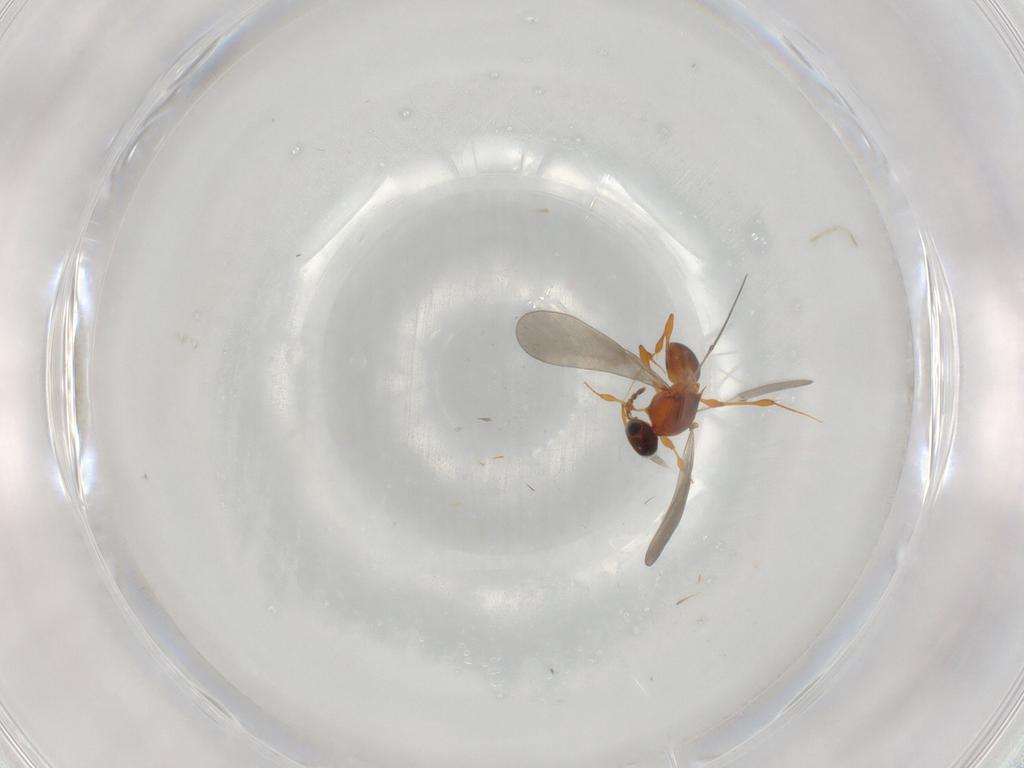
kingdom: Animalia
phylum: Arthropoda
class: Insecta
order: Hymenoptera
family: Platygastridae
